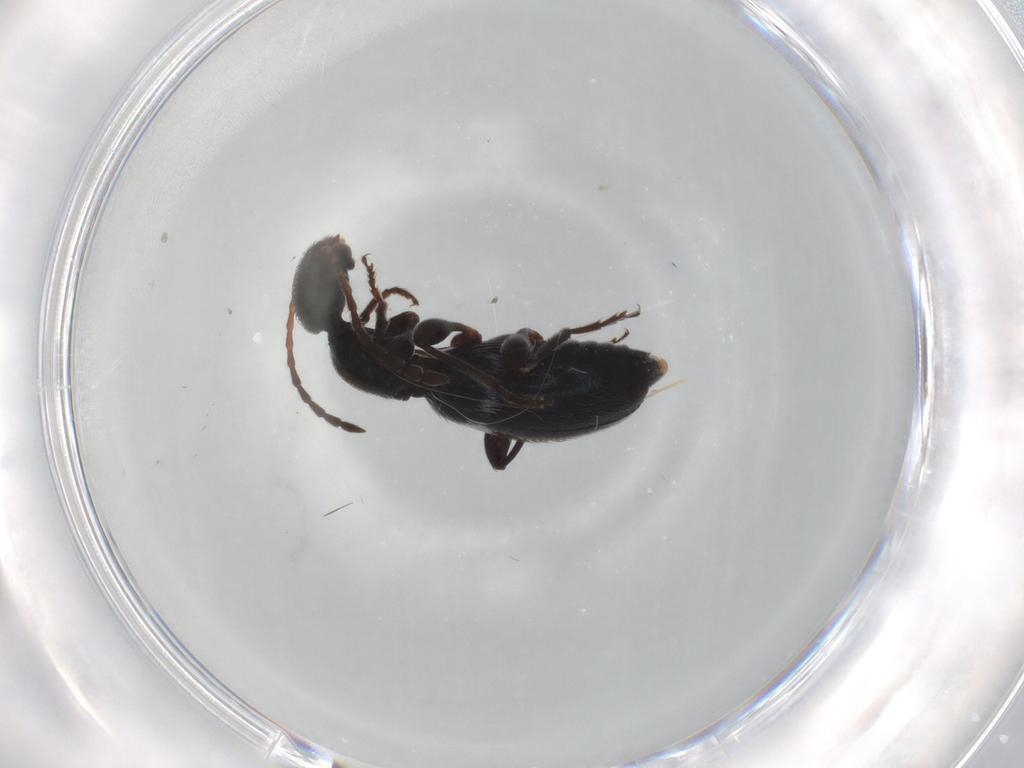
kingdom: Animalia
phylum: Arthropoda
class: Insecta
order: Coleoptera
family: Anthicidae
